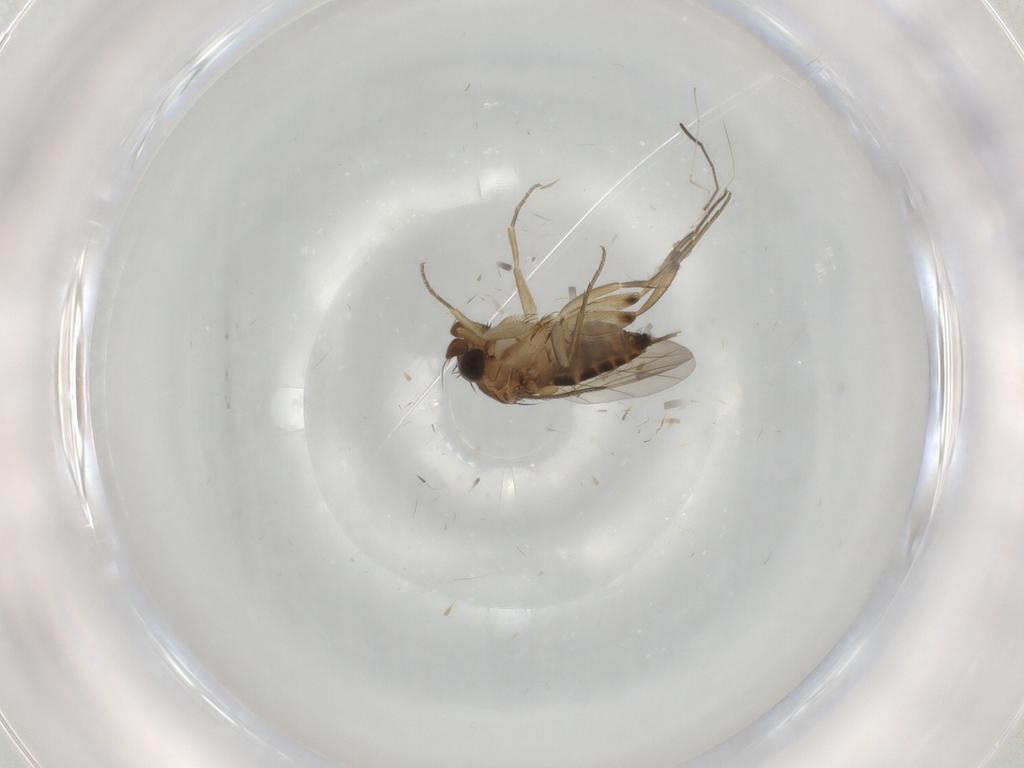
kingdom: Animalia
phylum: Arthropoda
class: Insecta
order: Diptera
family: Phoridae
